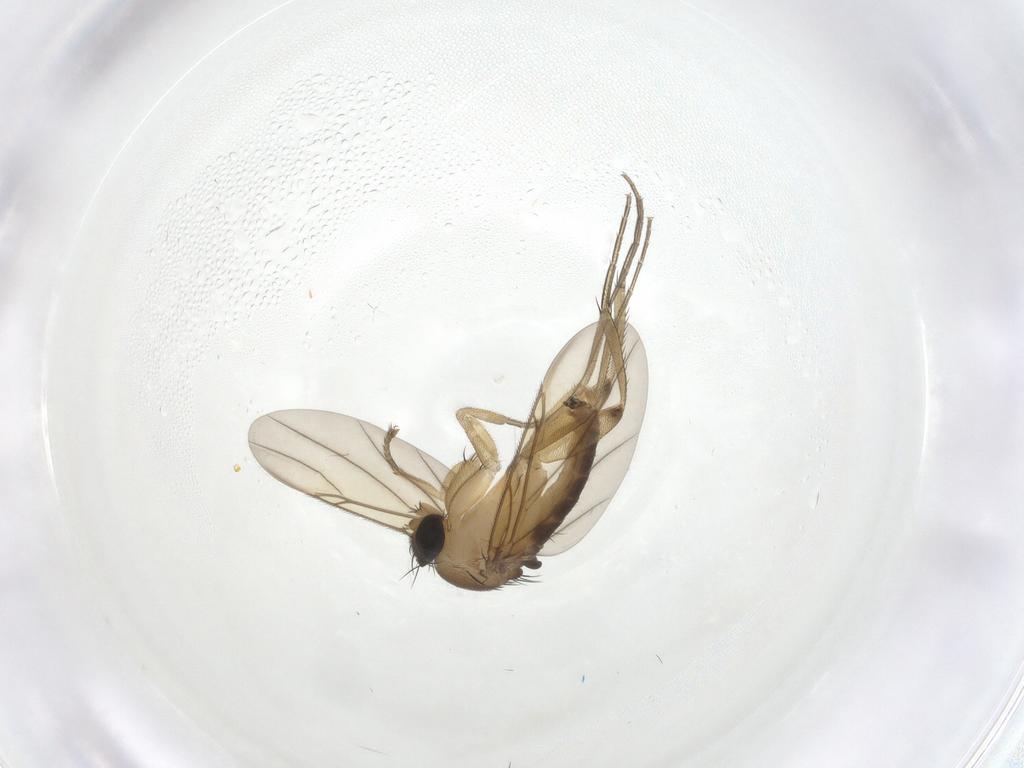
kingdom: Animalia
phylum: Arthropoda
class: Insecta
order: Diptera
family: Phoridae
